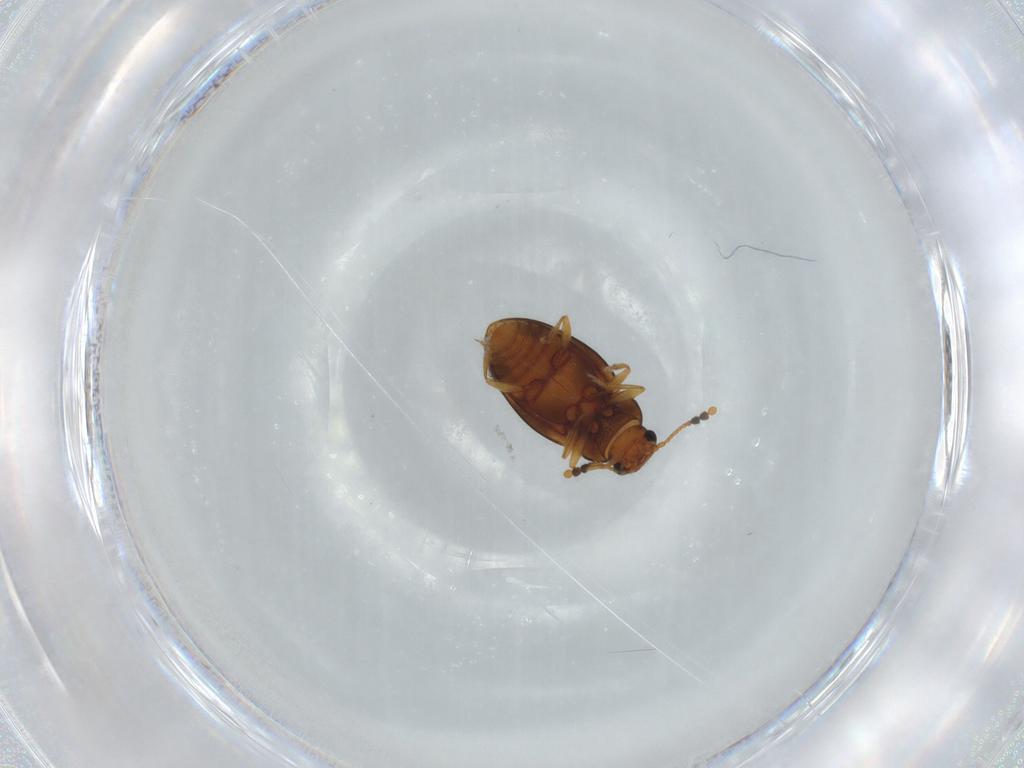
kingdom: Animalia
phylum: Arthropoda
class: Insecta
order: Coleoptera
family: Erotylidae
